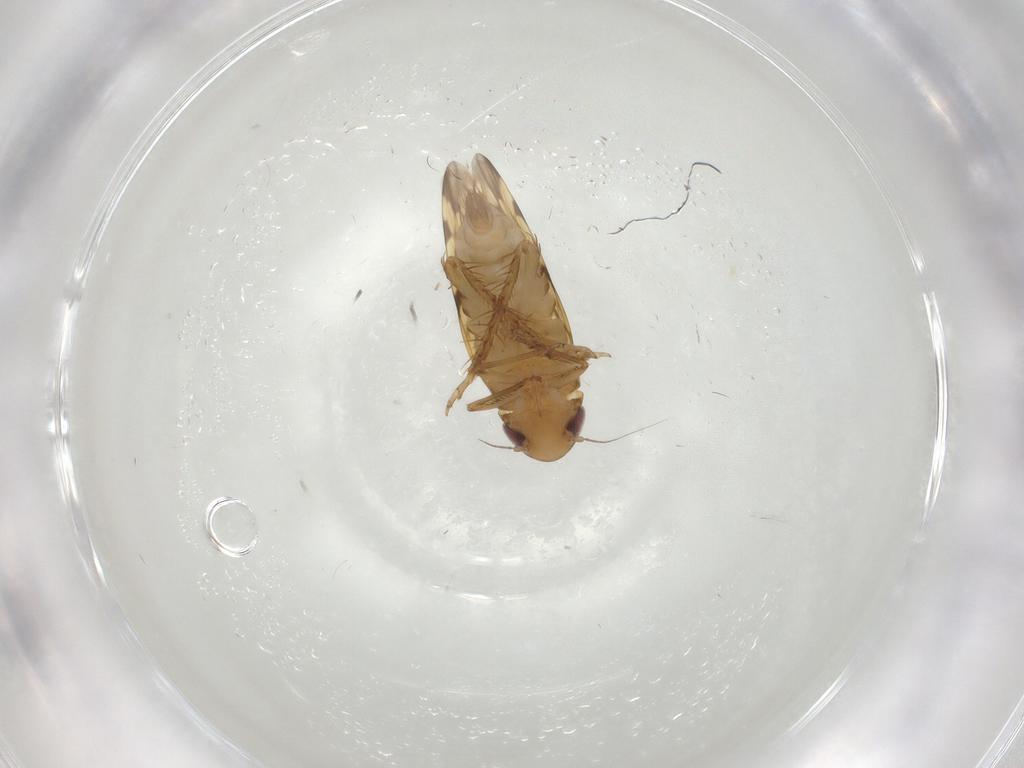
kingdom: Animalia
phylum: Arthropoda
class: Insecta
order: Hemiptera
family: Cicadellidae
